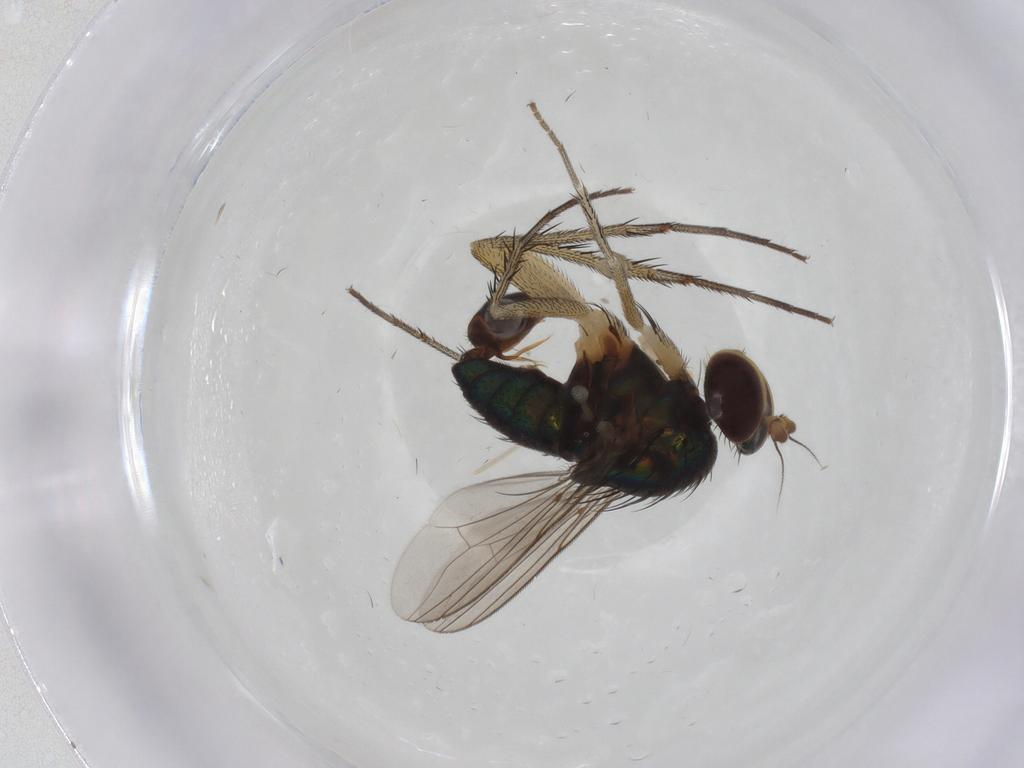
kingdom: Animalia
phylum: Arthropoda
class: Insecta
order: Diptera
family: Dolichopodidae
